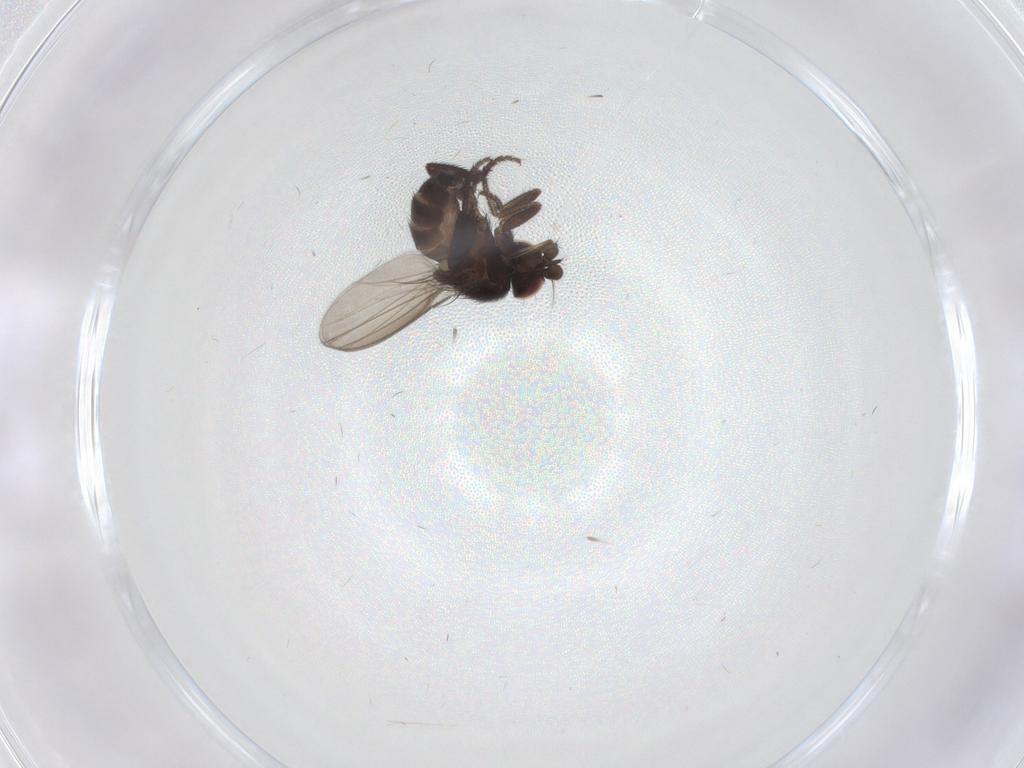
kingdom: Animalia
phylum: Arthropoda
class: Insecta
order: Diptera
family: Milichiidae
